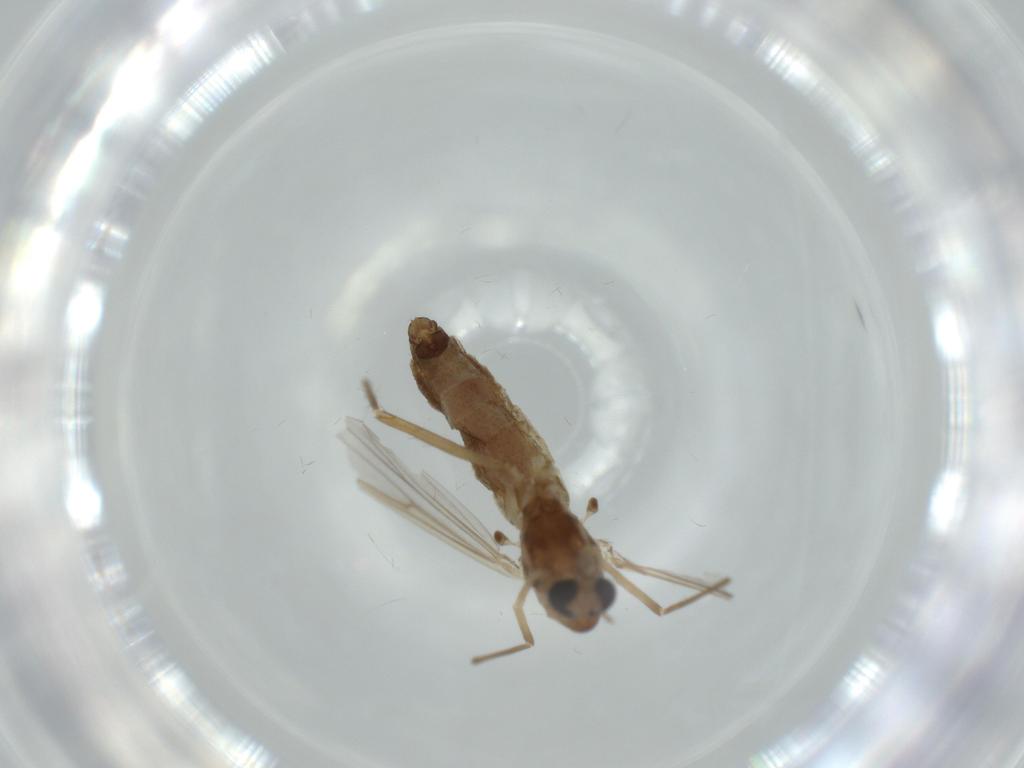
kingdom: Animalia
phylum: Arthropoda
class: Insecta
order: Diptera
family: Chironomidae
